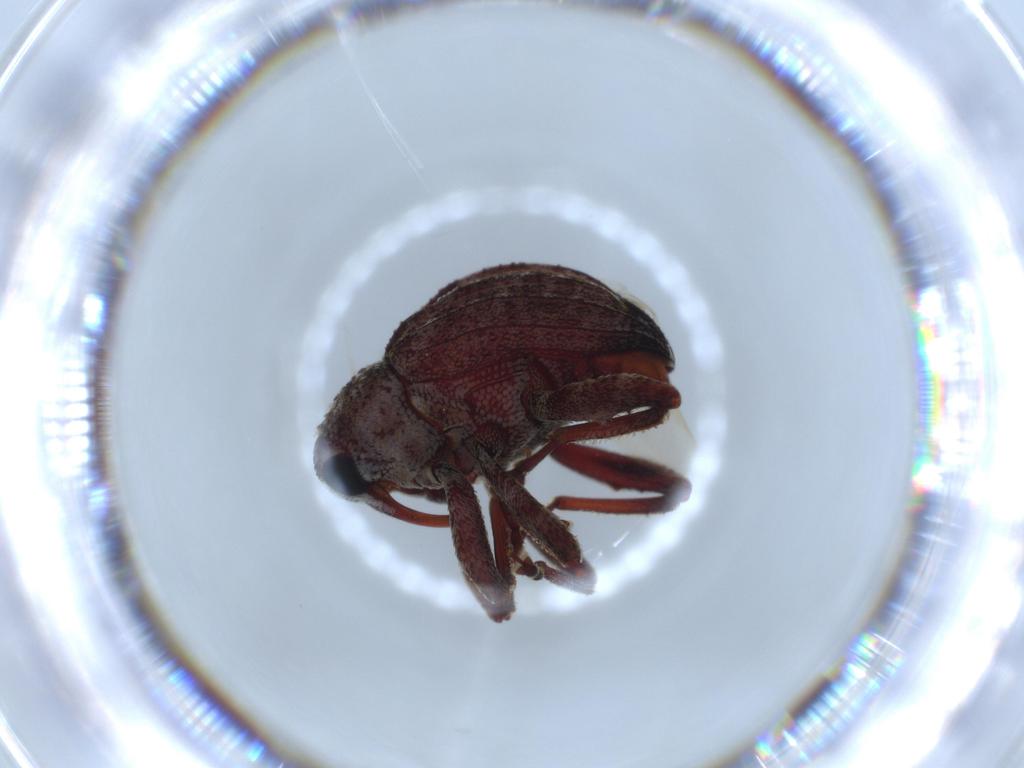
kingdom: Animalia
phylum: Arthropoda
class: Insecta
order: Coleoptera
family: Curculionidae
